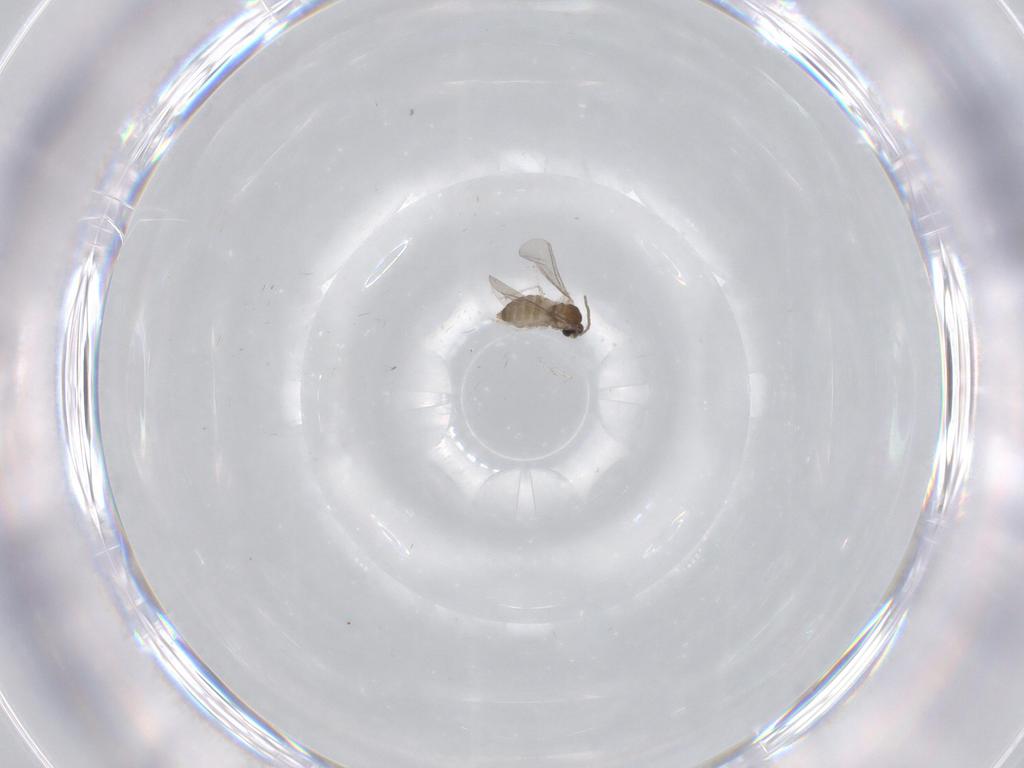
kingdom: Animalia
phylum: Arthropoda
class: Insecta
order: Diptera
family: Cecidomyiidae
